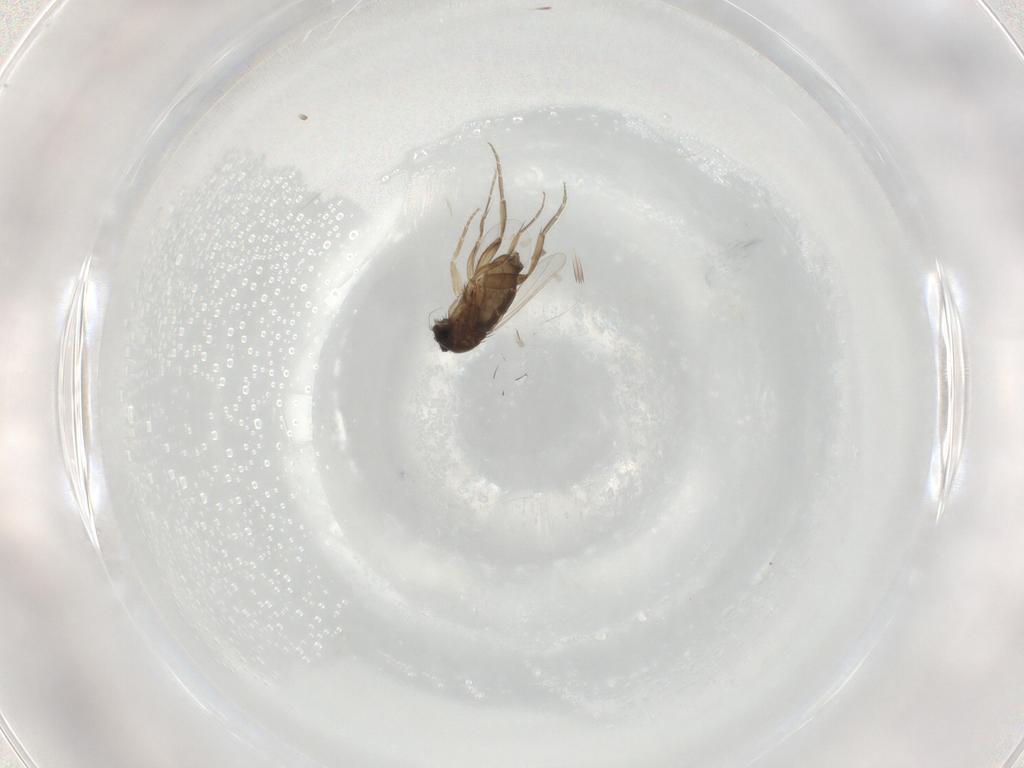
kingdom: Animalia
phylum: Arthropoda
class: Insecta
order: Diptera
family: Phoridae
